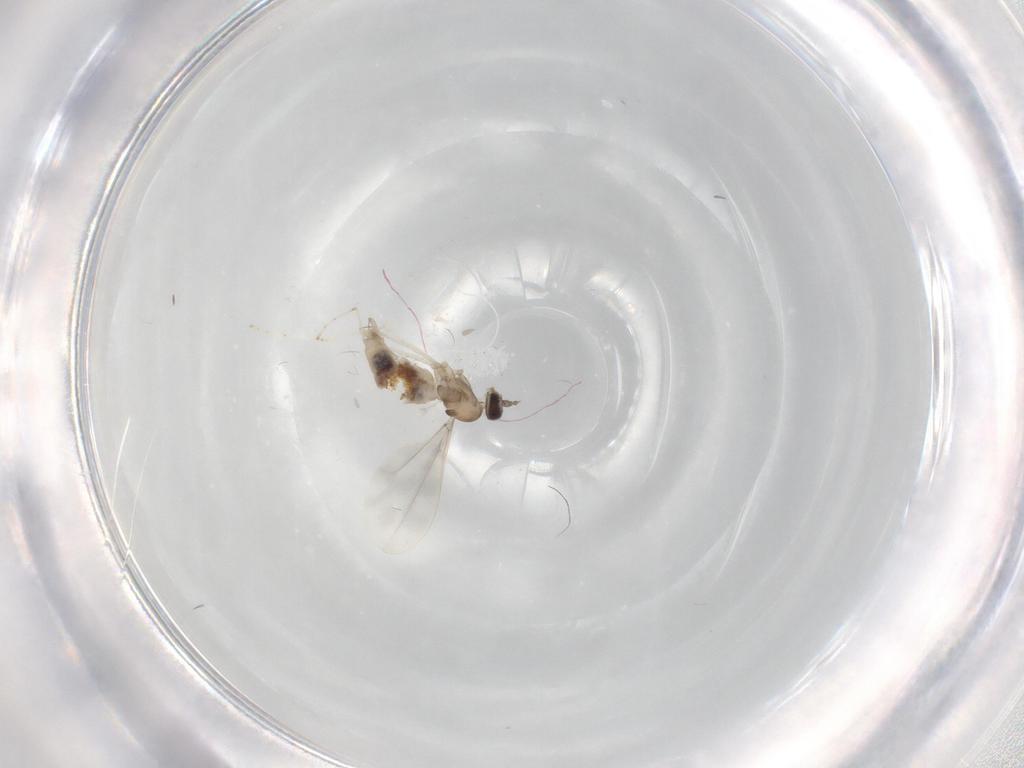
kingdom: Animalia
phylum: Arthropoda
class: Insecta
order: Diptera
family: Cecidomyiidae
